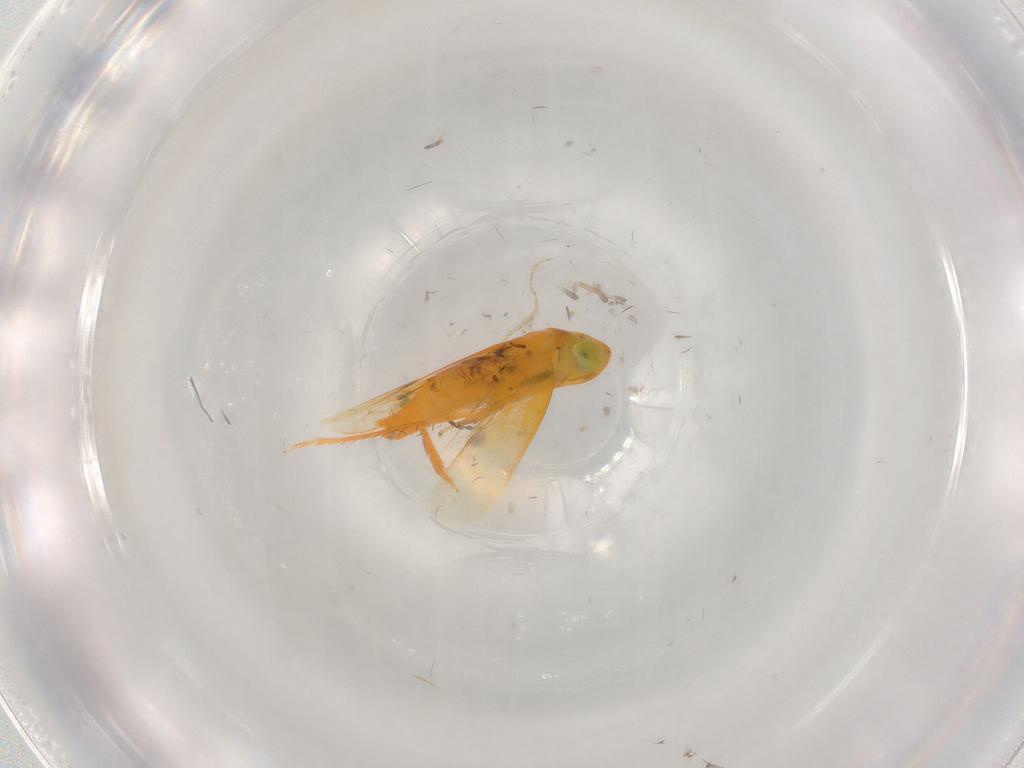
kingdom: Animalia
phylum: Arthropoda
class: Insecta
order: Hemiptera
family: Cicadellidae
